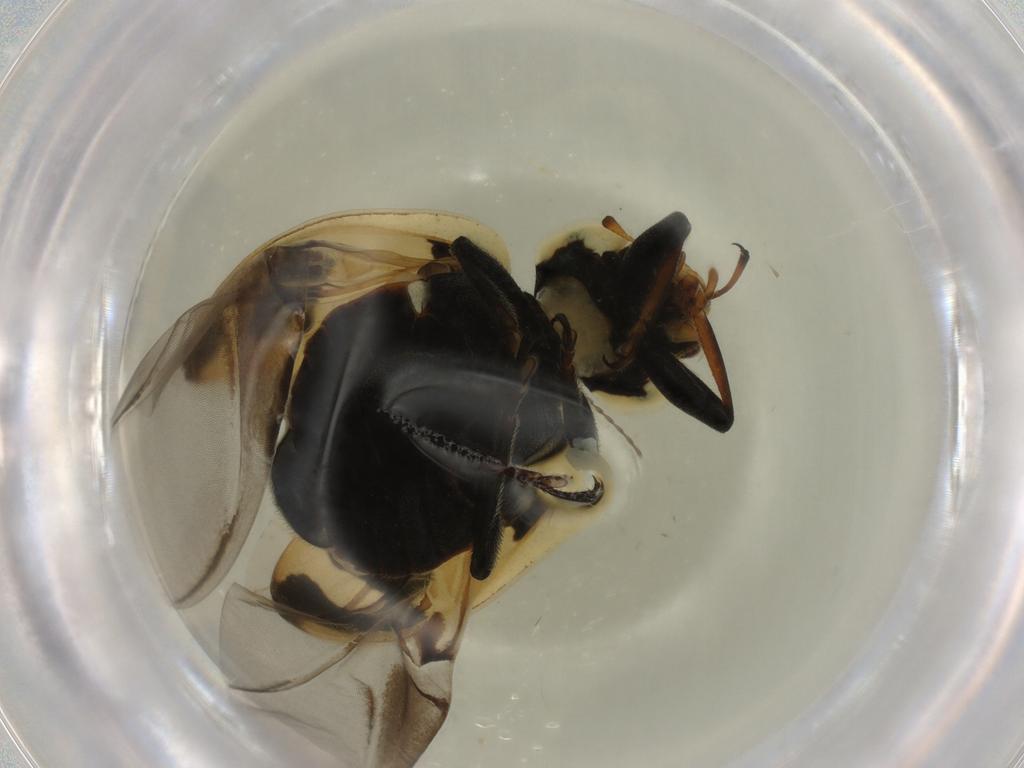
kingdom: Animalia
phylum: Arthropoda
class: Insecta
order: Coleoptera
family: Coccinellidae
